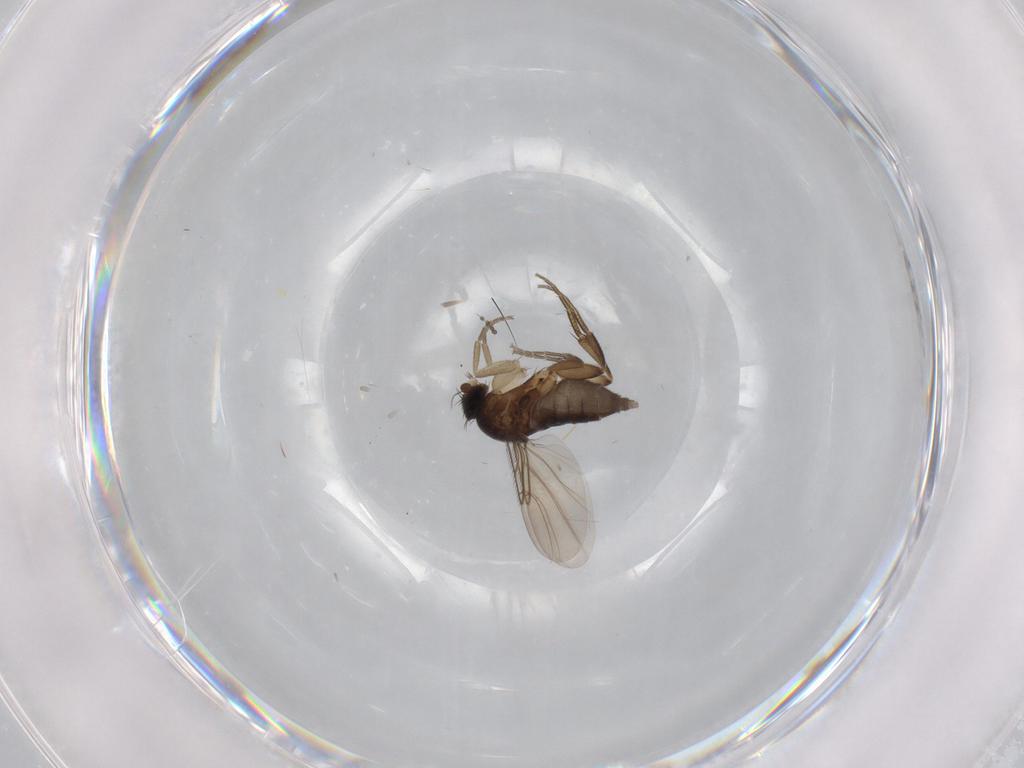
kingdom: Animalia
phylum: Arthropoda
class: Insecta
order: Diptera
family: Phoridae
